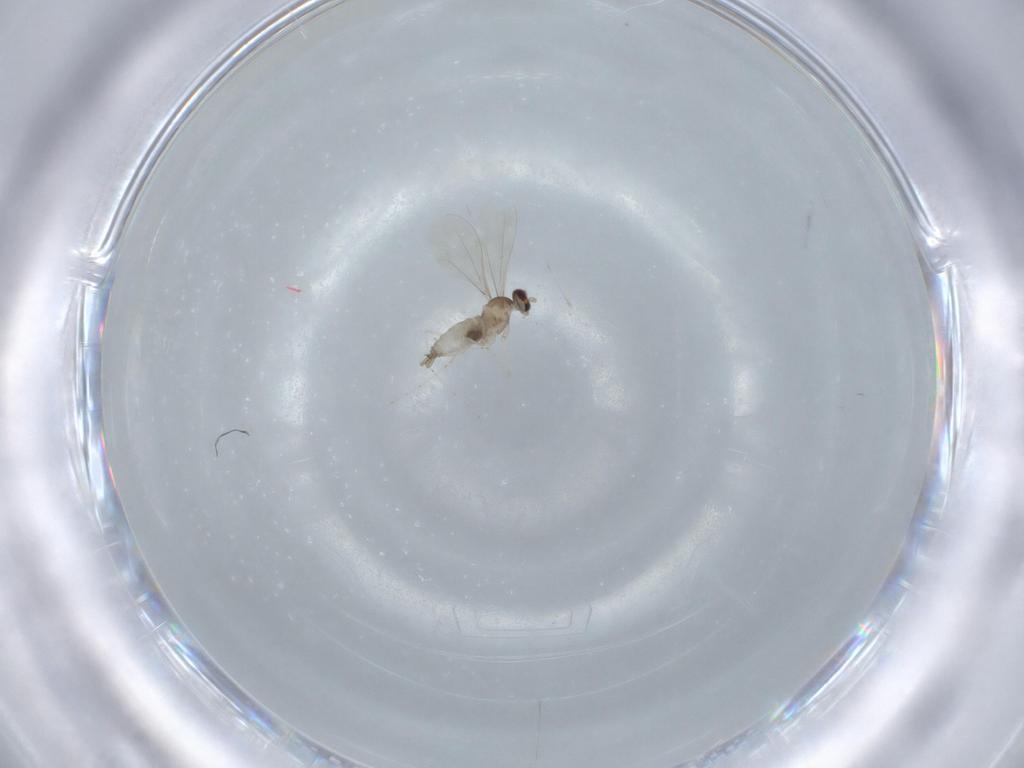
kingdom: Animalia
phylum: Arthropoda
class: Insecta
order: Diptera
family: Cecidomyiidae
